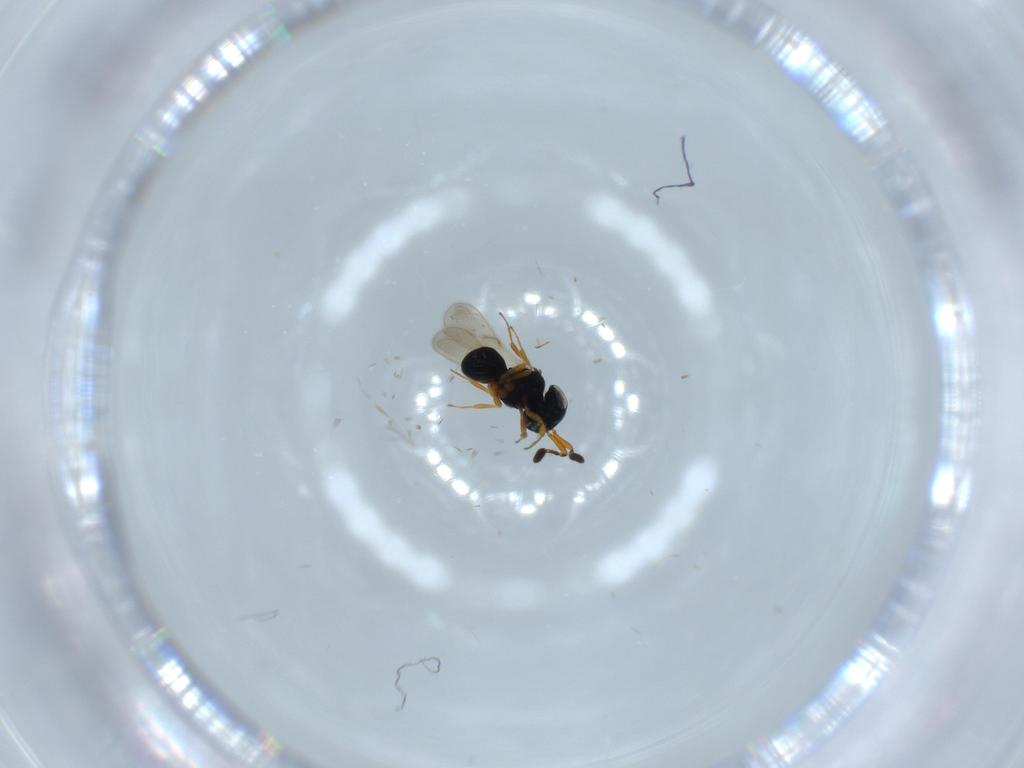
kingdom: Animalia
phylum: Arthropoda
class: Insecta
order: Hymenoptera
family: Scelionidae
